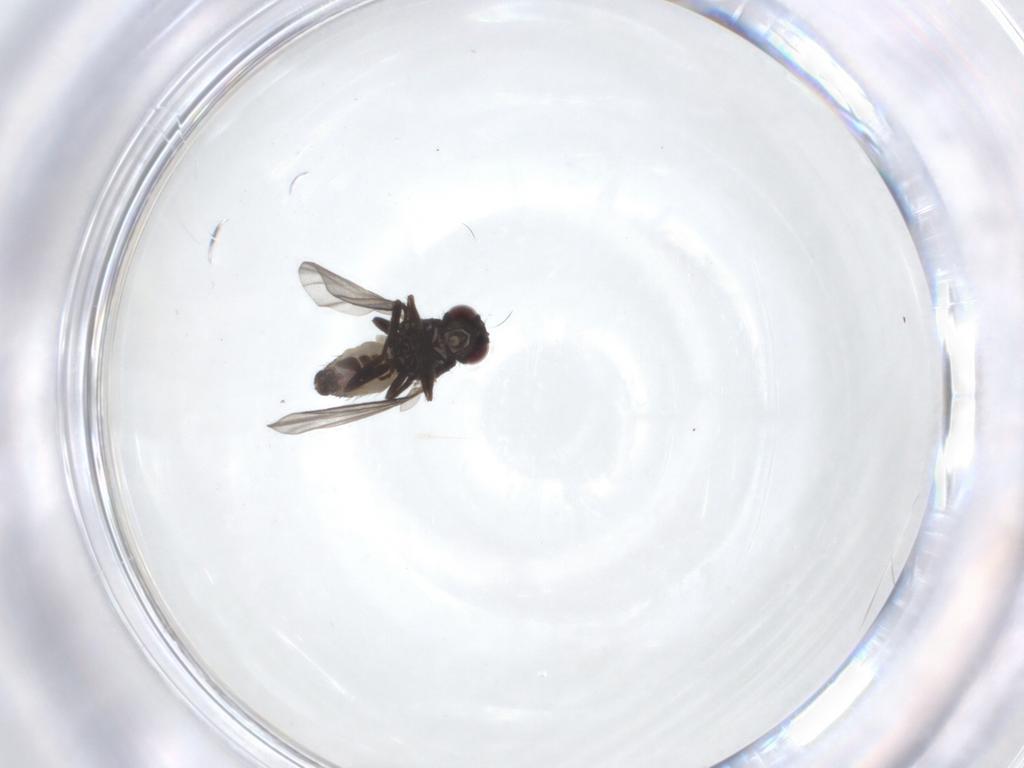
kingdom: Animalia
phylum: Arthropoda
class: Insecta
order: Diptera
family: Agromyzidae
